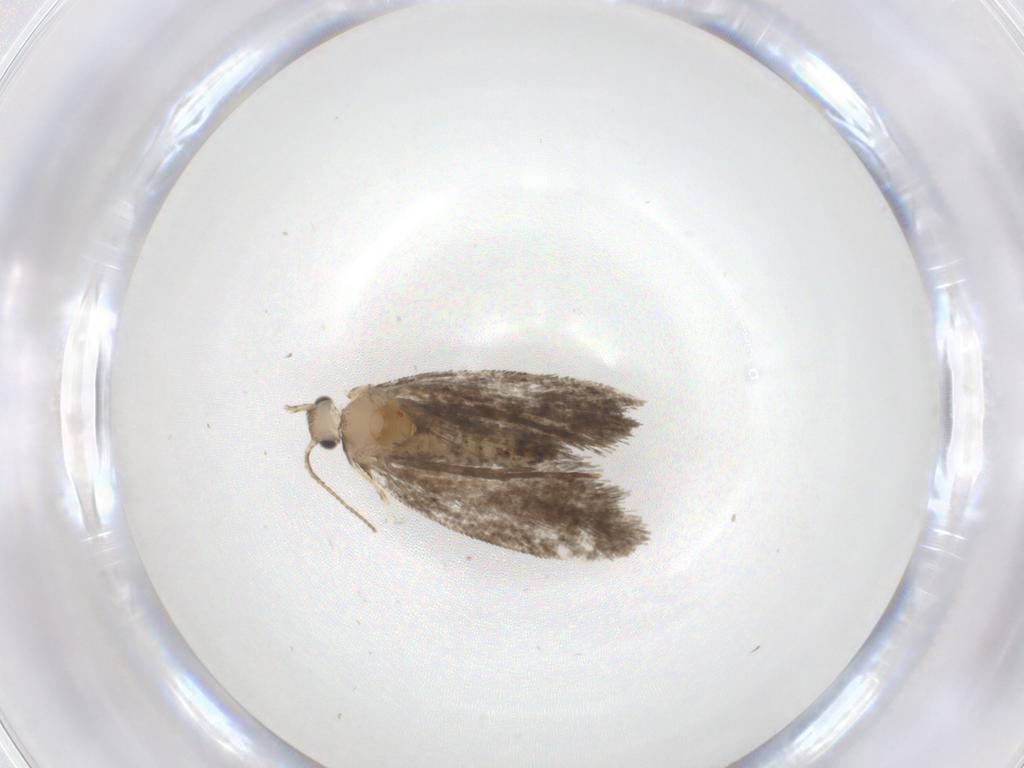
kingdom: Animalia
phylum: Arthropoda
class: Insecta
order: Lepidoptera
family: Psychidae
